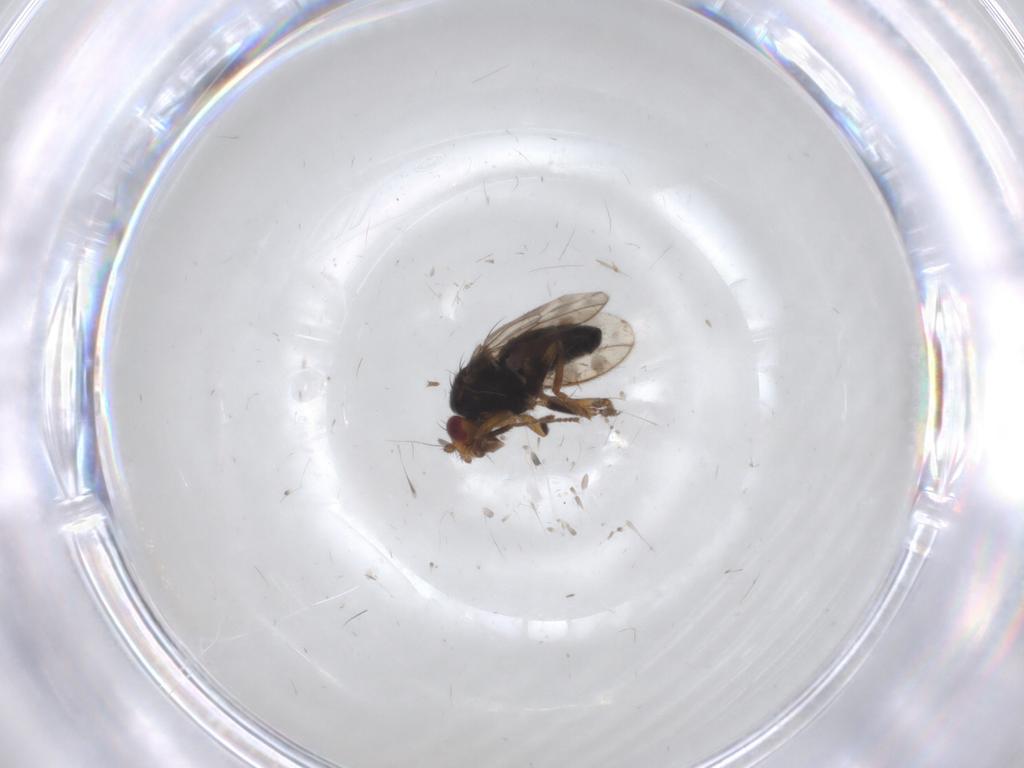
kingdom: Animalia
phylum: Arthropoda
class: Insecta
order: Diptera
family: Sphaeroceridae
